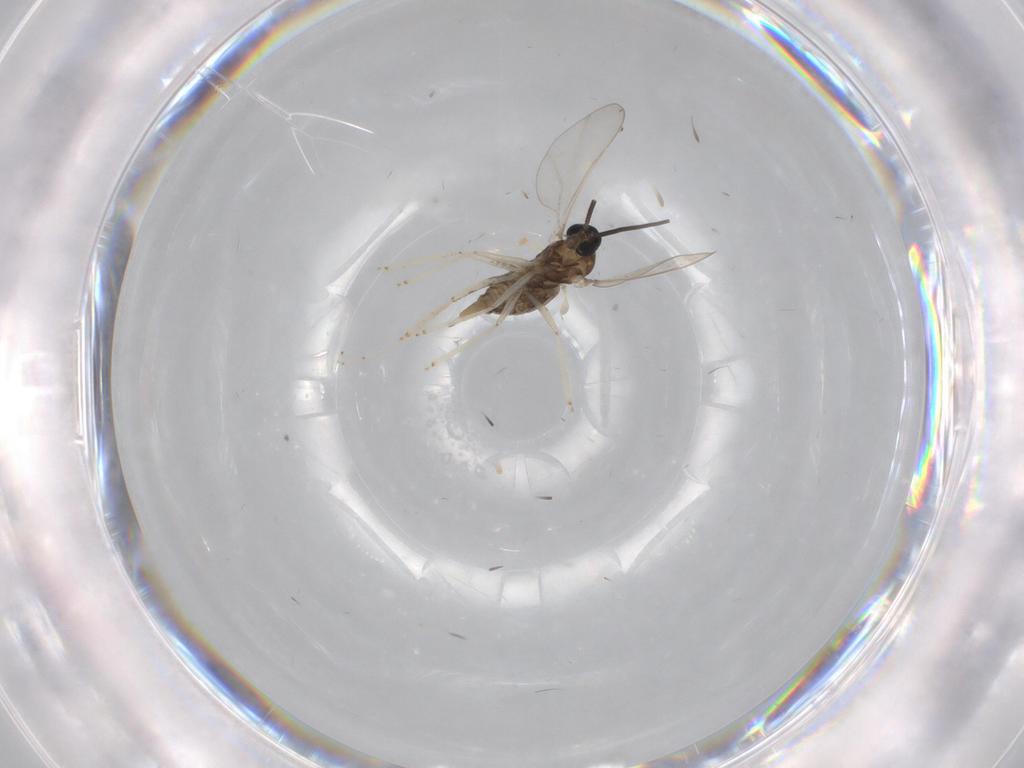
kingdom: Animalia
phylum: Arthropoda
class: Insecta
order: Diptera
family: Cecidomyiidae
